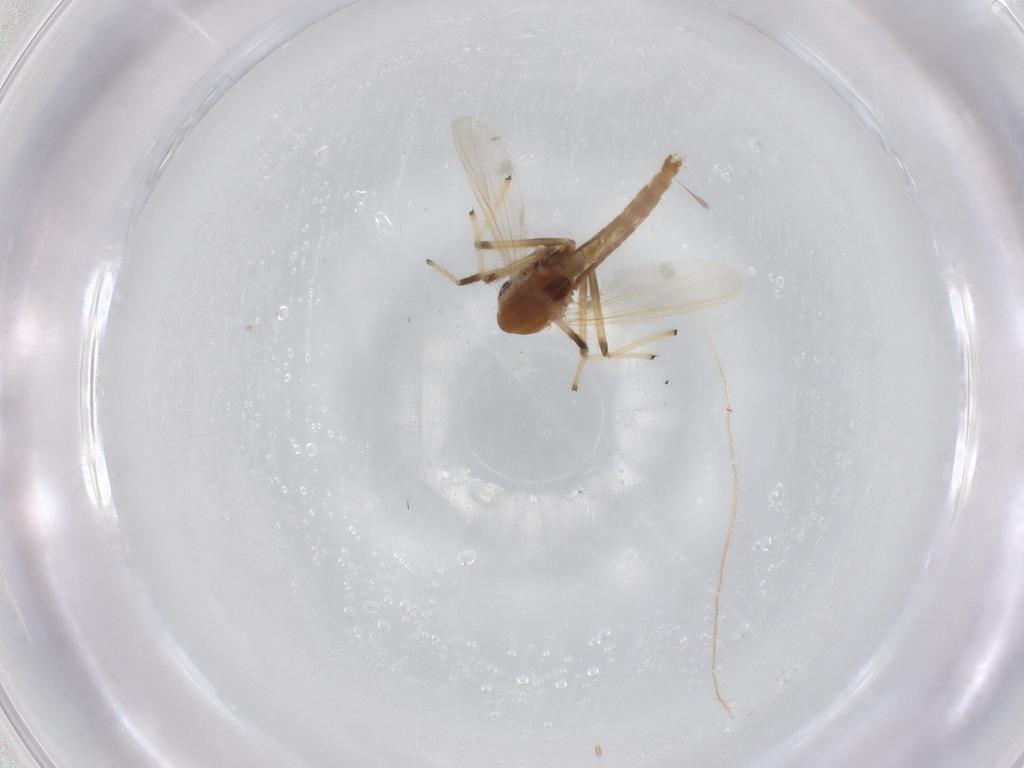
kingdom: Animalia
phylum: Arthropoda
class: Insecta
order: Diptera
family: Chironomidae
